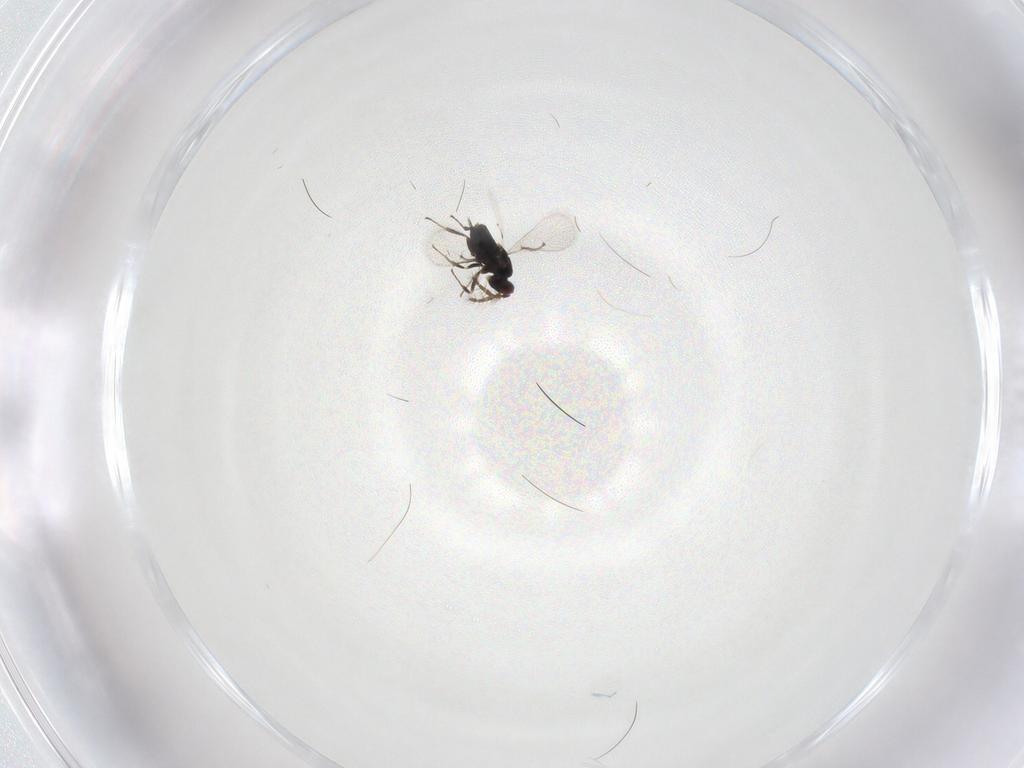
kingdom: Animalia
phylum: Arthropoda
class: Insecta
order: Hymenoptera
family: Trichogrammatidae
